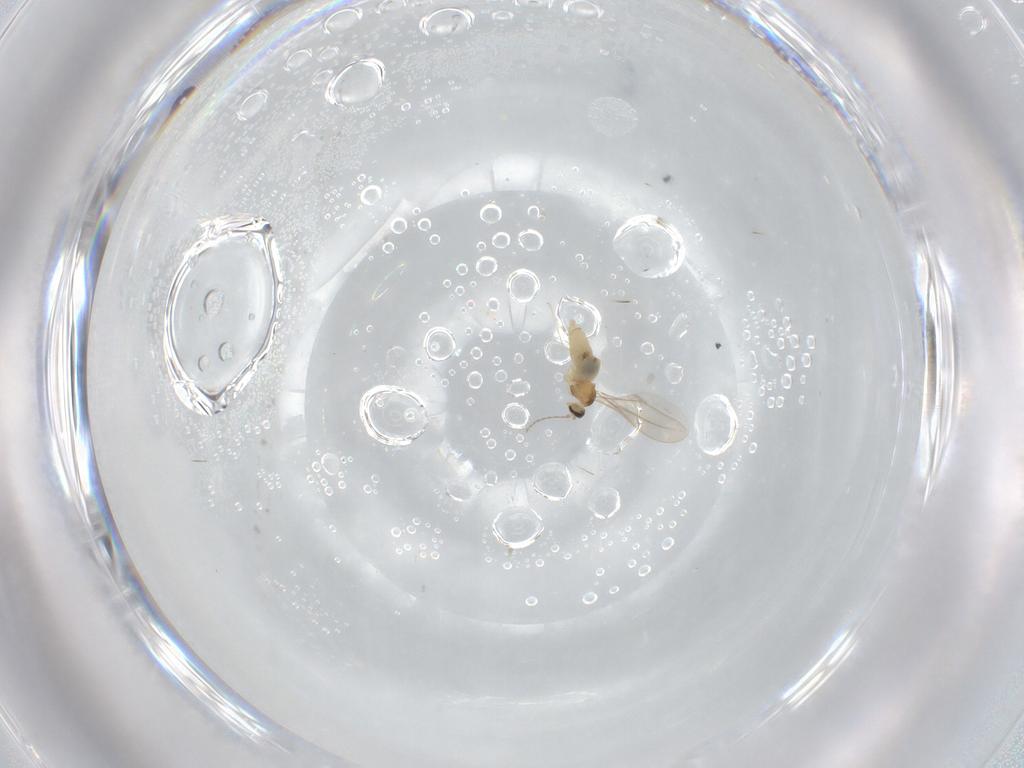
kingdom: Animalia
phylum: Arthropoda
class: Insecta
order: Diptera
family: Cecidomyiidae
